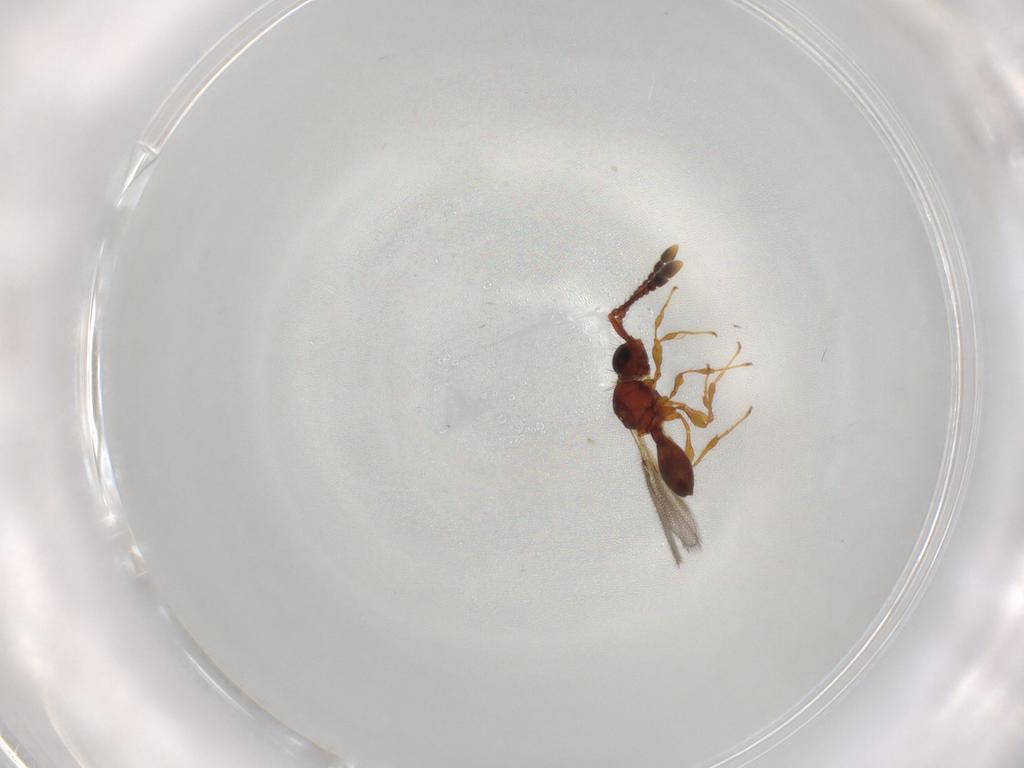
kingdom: Animalia
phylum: Arthropoda
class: Insecta
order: Hymenoptera
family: Diapriidae
